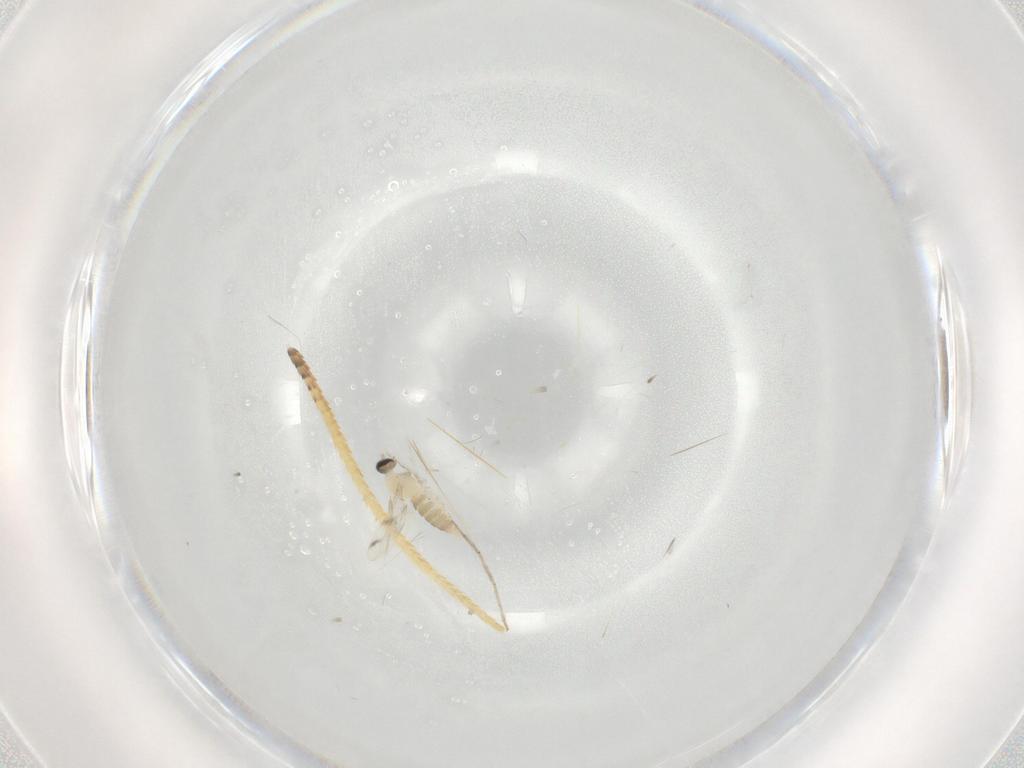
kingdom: Animalia
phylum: Arthropoda
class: Insecta
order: Diptera
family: Cecidomyiidae
